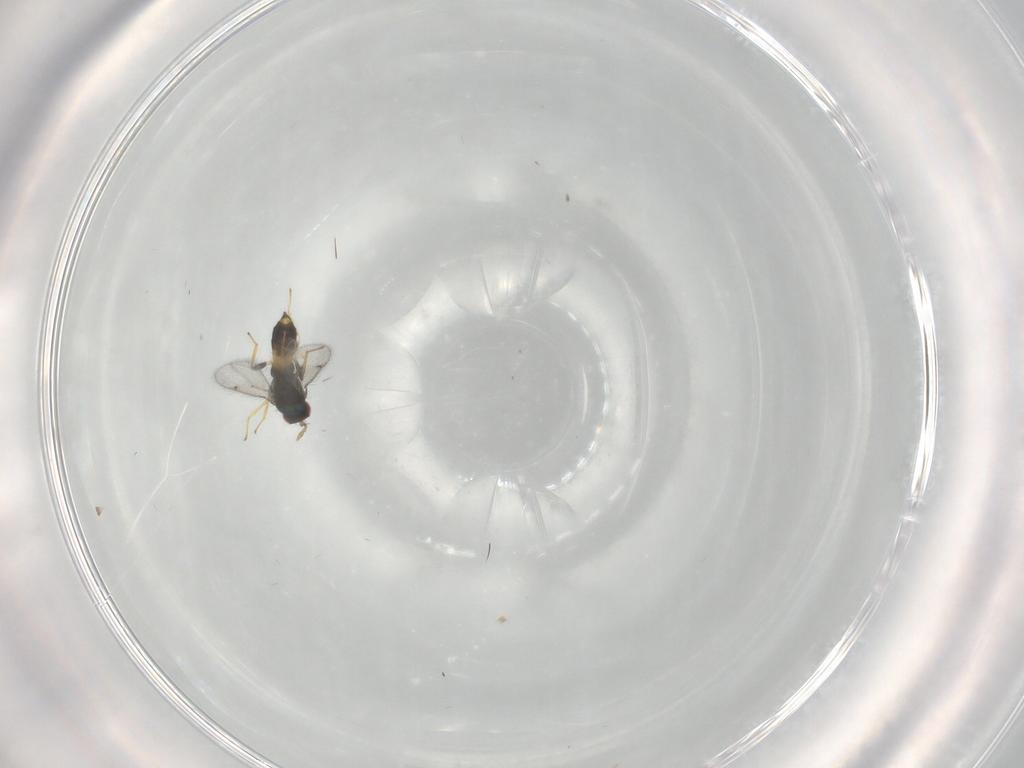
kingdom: Animalia
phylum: Arthropoda
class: Insecta
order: Hymenoptera
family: Eulophidae
